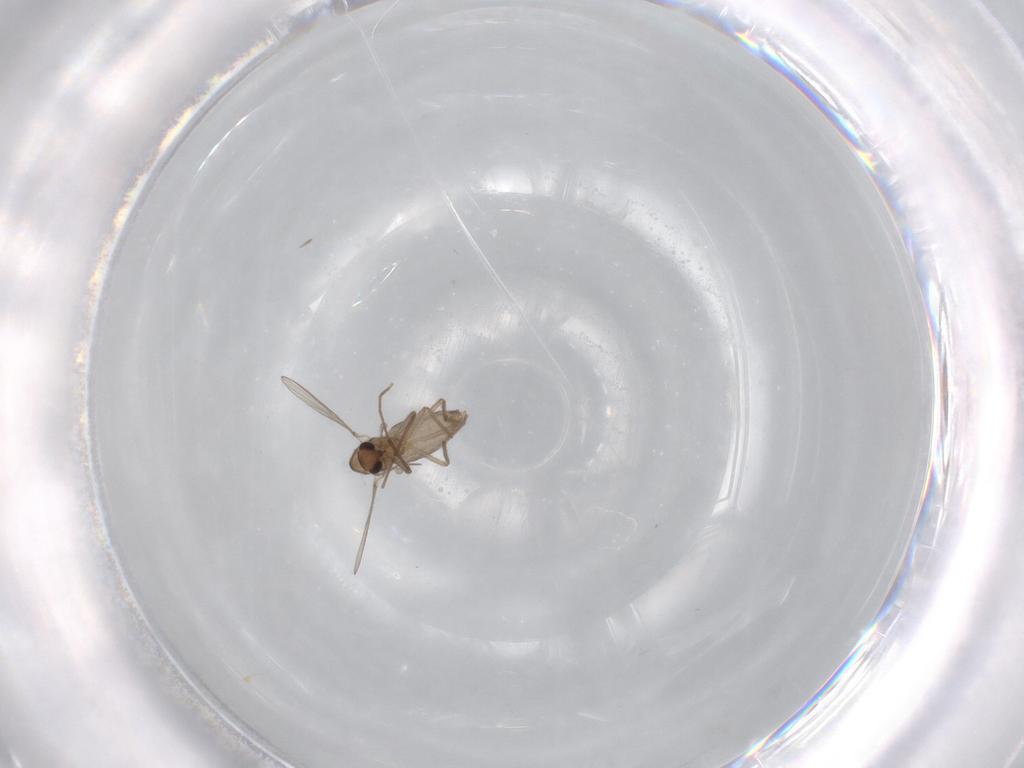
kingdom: Animalia
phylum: Arthropoda
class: Insecta
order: Diptera
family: Chironomidae
